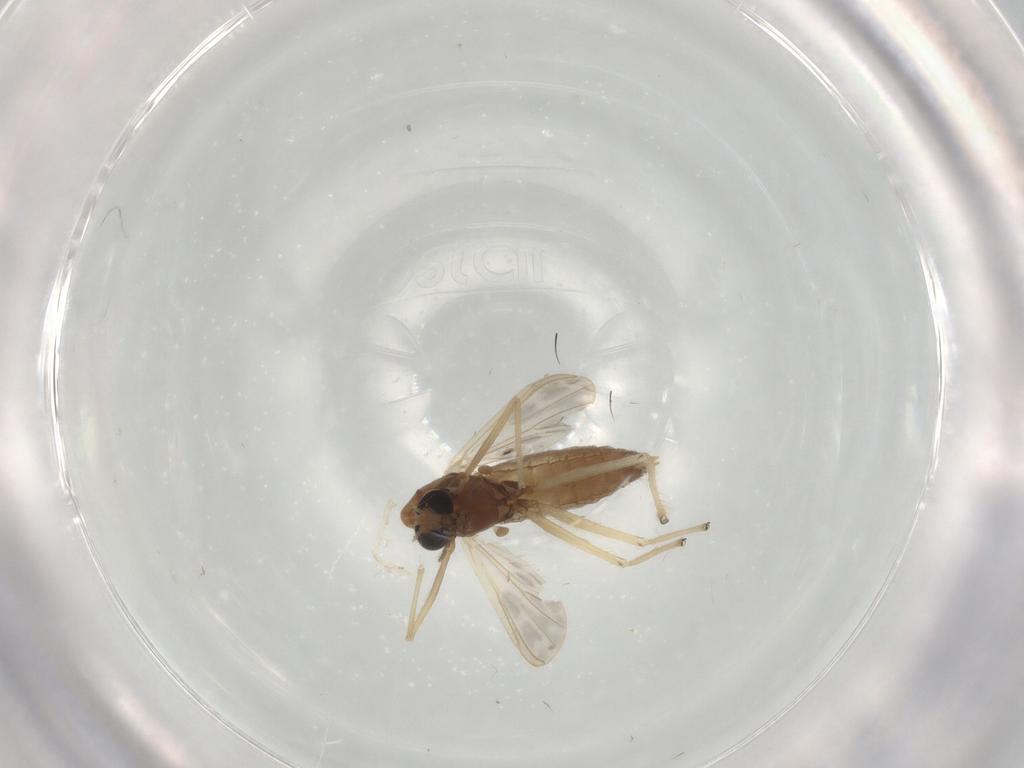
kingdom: Animalia
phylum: Arthropoda
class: Insecta
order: Diptera
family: Chironomidae
